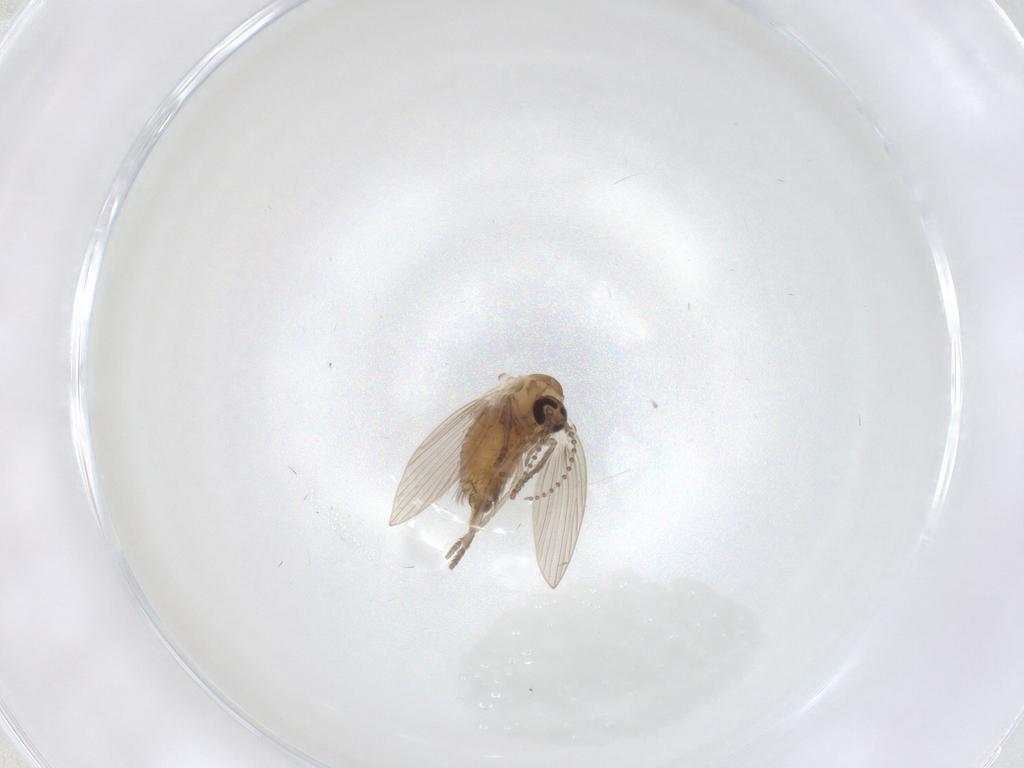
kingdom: Animalia
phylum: Arthropoda
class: Insecta
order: Diptera
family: Psychodidae
